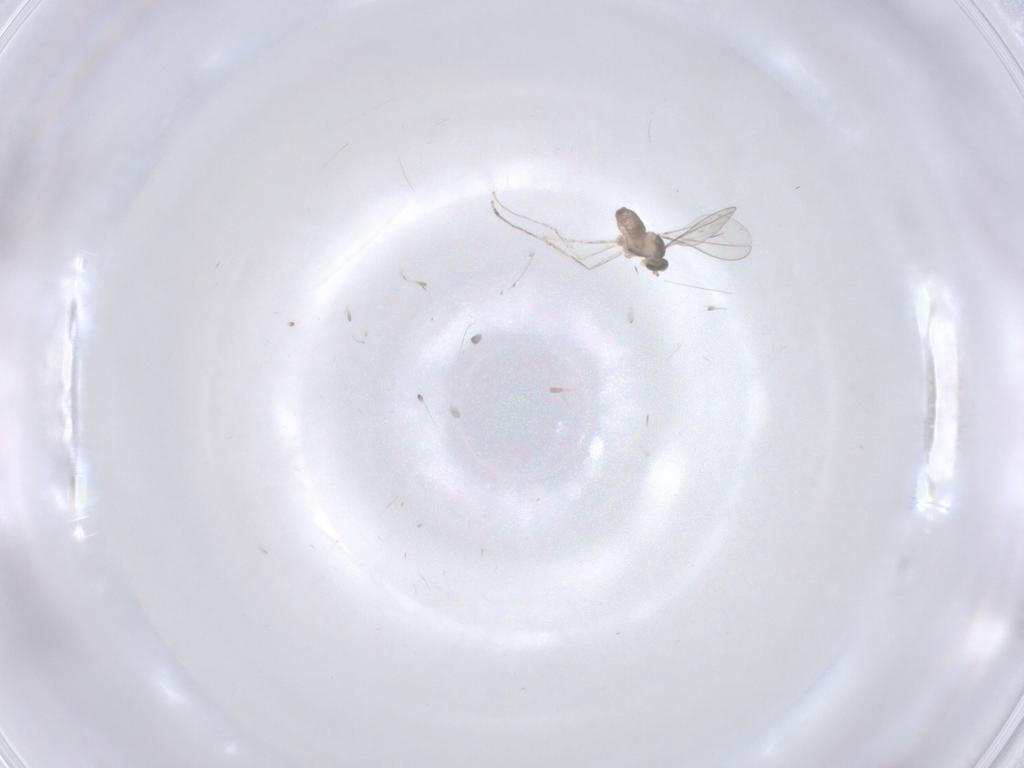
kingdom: Animalia
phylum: Arthropoda
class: Insecta
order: Diptera
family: Cecidomyiidae
